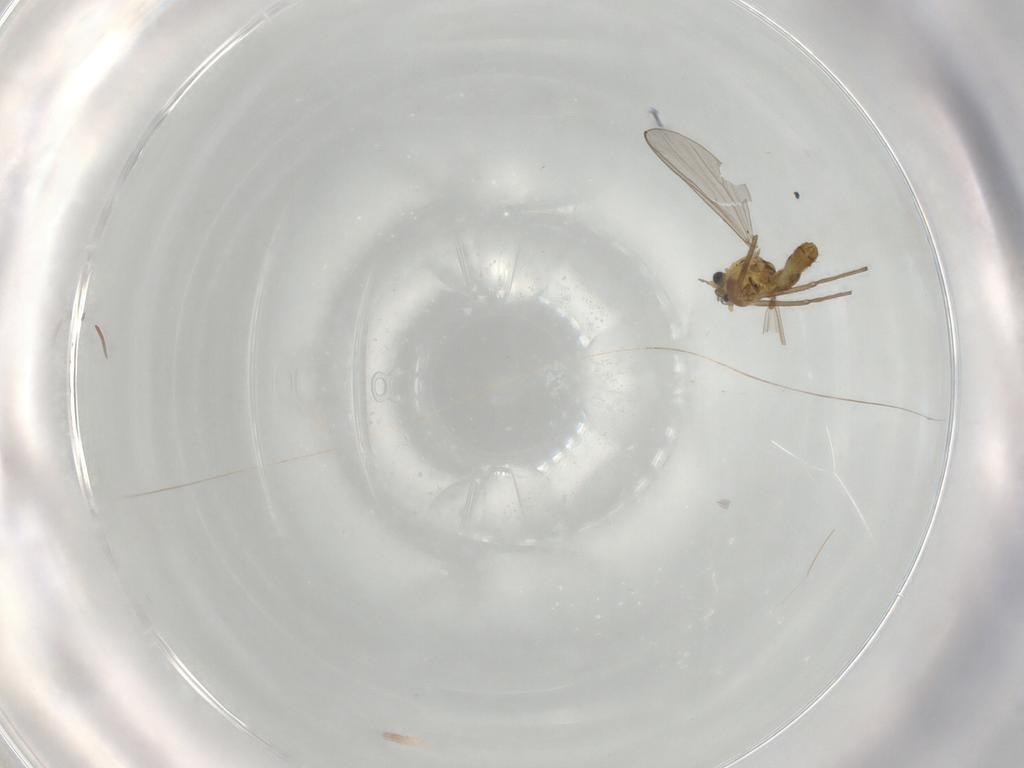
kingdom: Animalia
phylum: Arthropoda
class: Insecta
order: Diptera
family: Chironomidae
